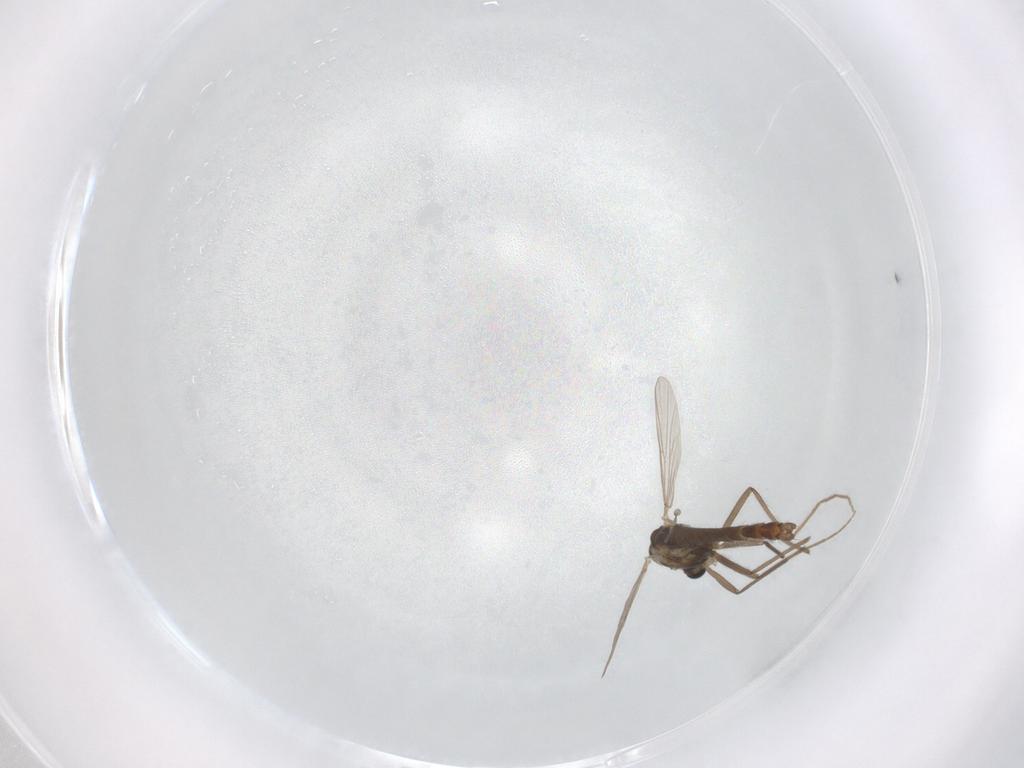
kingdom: Animalia
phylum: Arthropoda
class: Insecta
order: Diptera
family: Chironomidae
